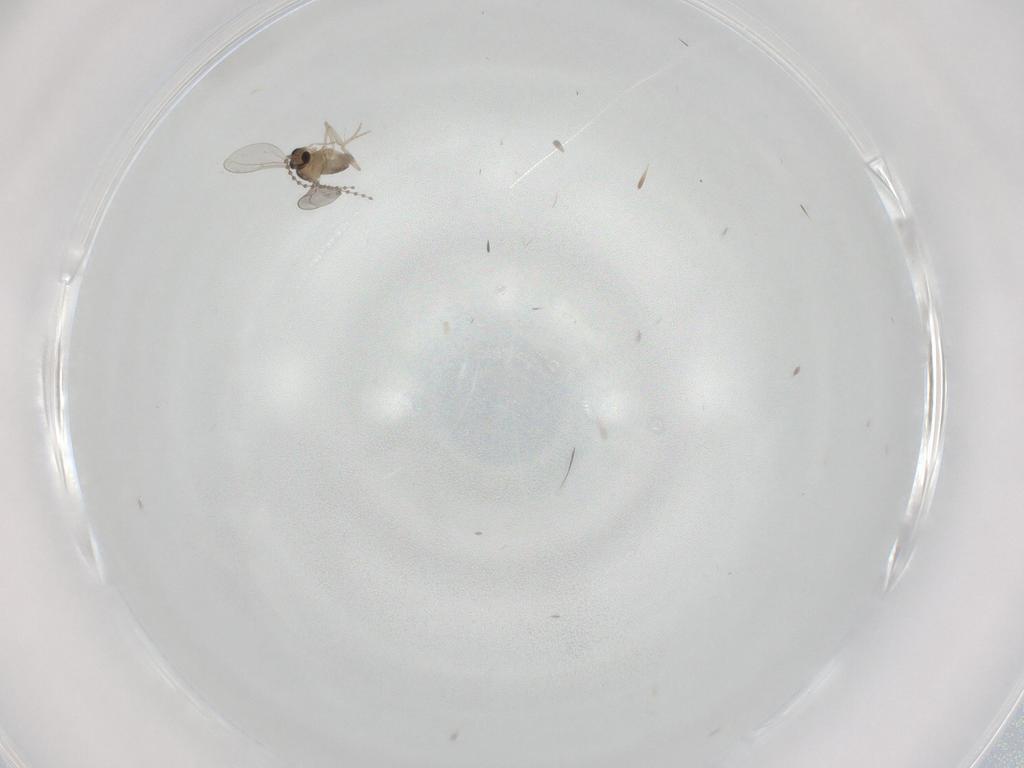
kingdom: Animalia
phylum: Arthropoda
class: Insecta
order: Diptera
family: Cecidomyiidae
